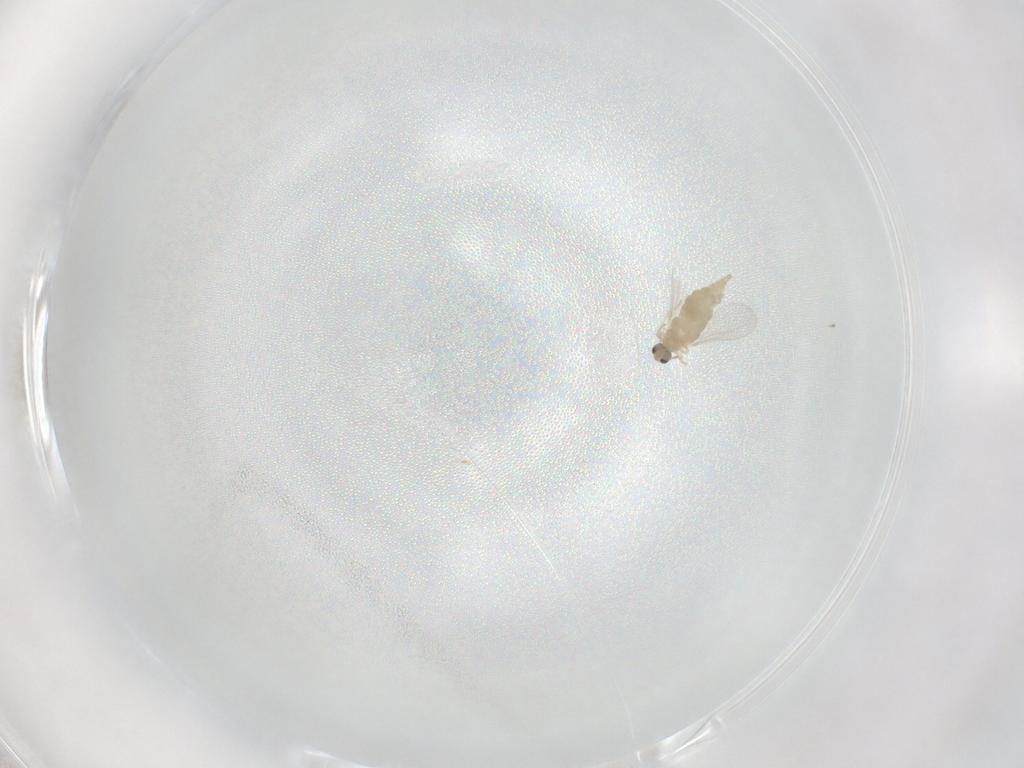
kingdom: Animalia
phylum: Arthropoda
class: Insecta
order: Diptera
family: Cecidomyiidae
